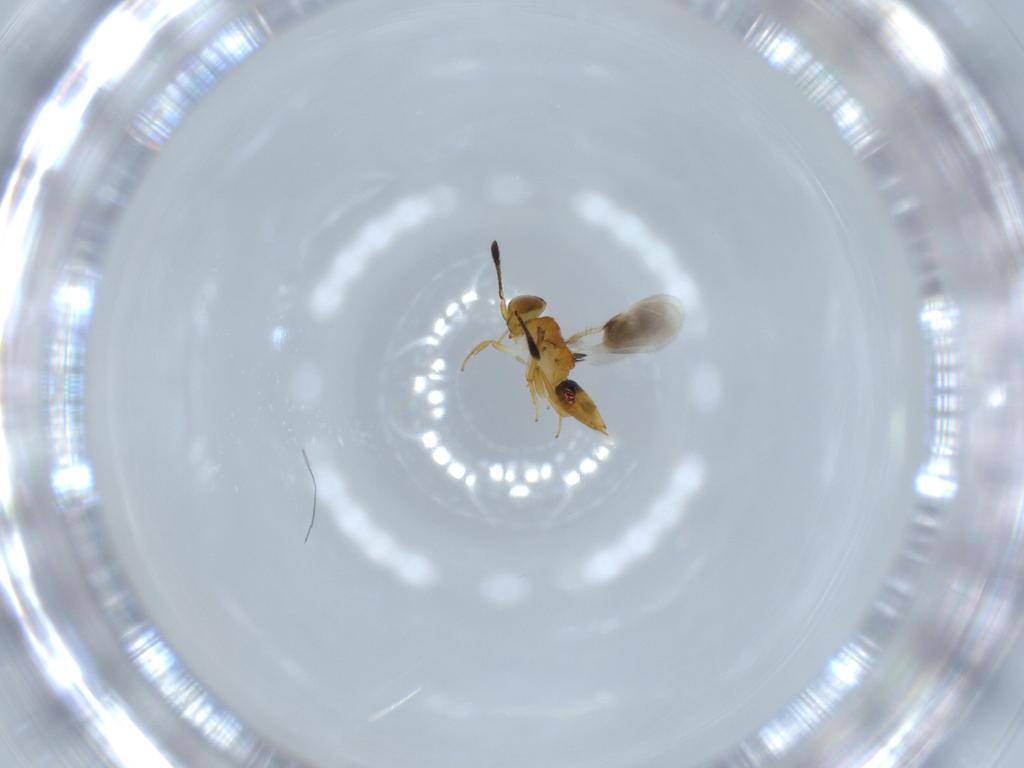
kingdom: Animalia
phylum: Arthropoda
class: Insecta
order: Hymenoptera
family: Encyrtidae
